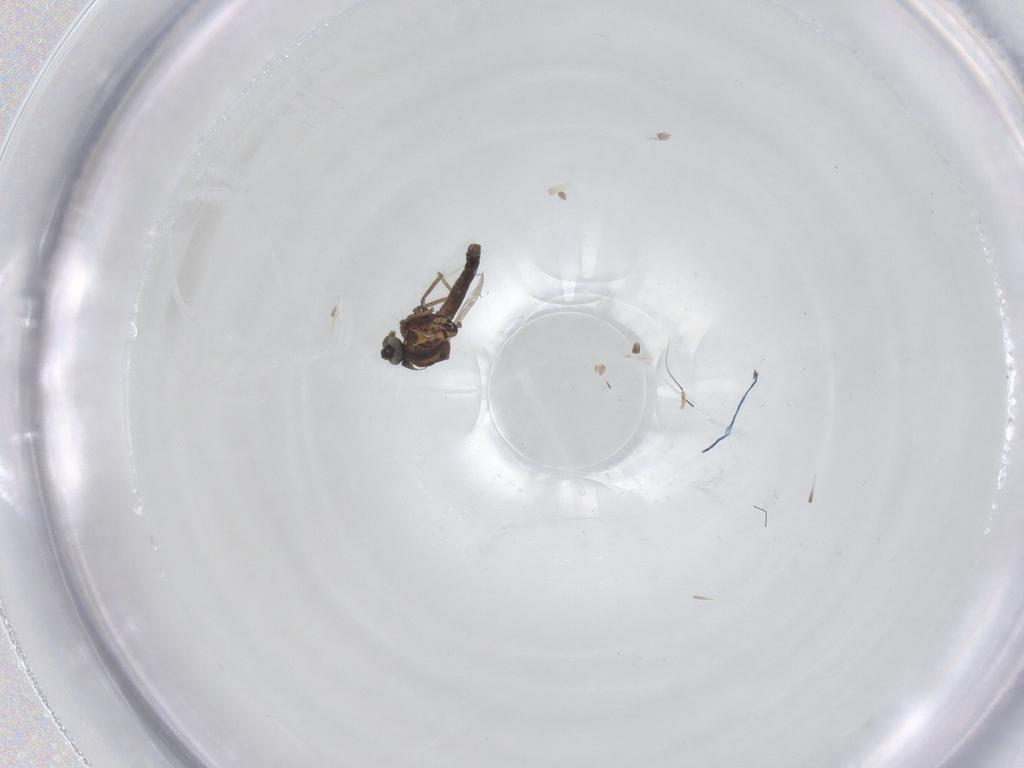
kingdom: Animalia
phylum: Arthropoda
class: Insecta
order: Diptera
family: Ceratopogonidae
